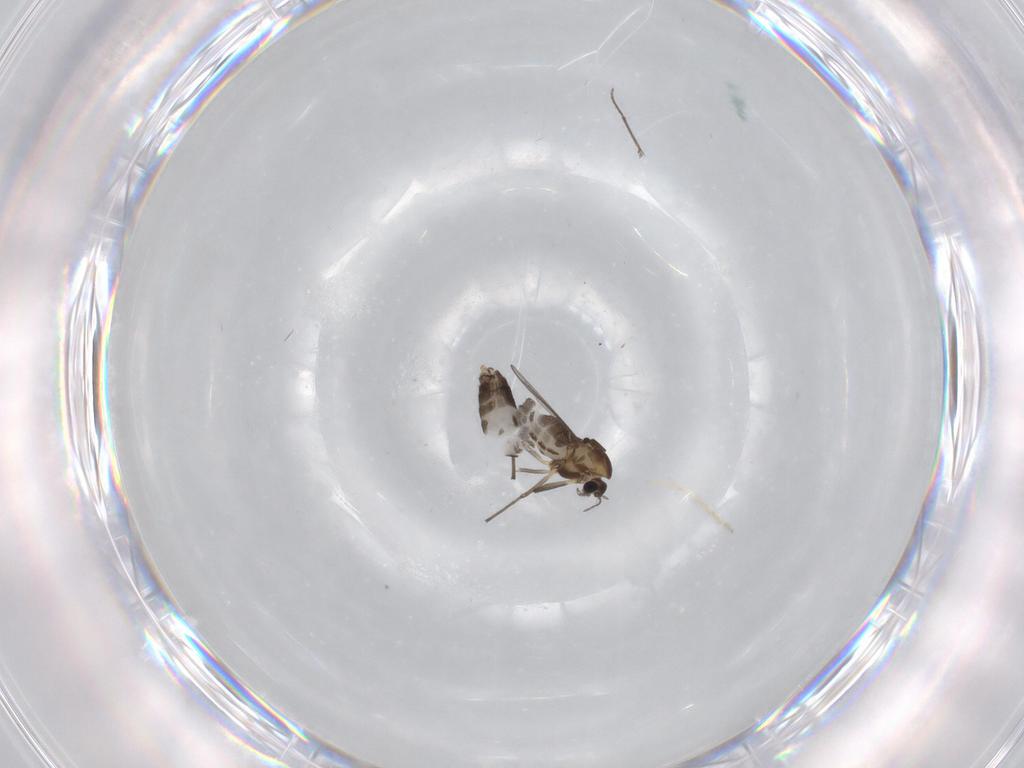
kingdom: Animalia
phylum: Arthropoda
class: Insecta
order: Diptera
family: Chironomidae
